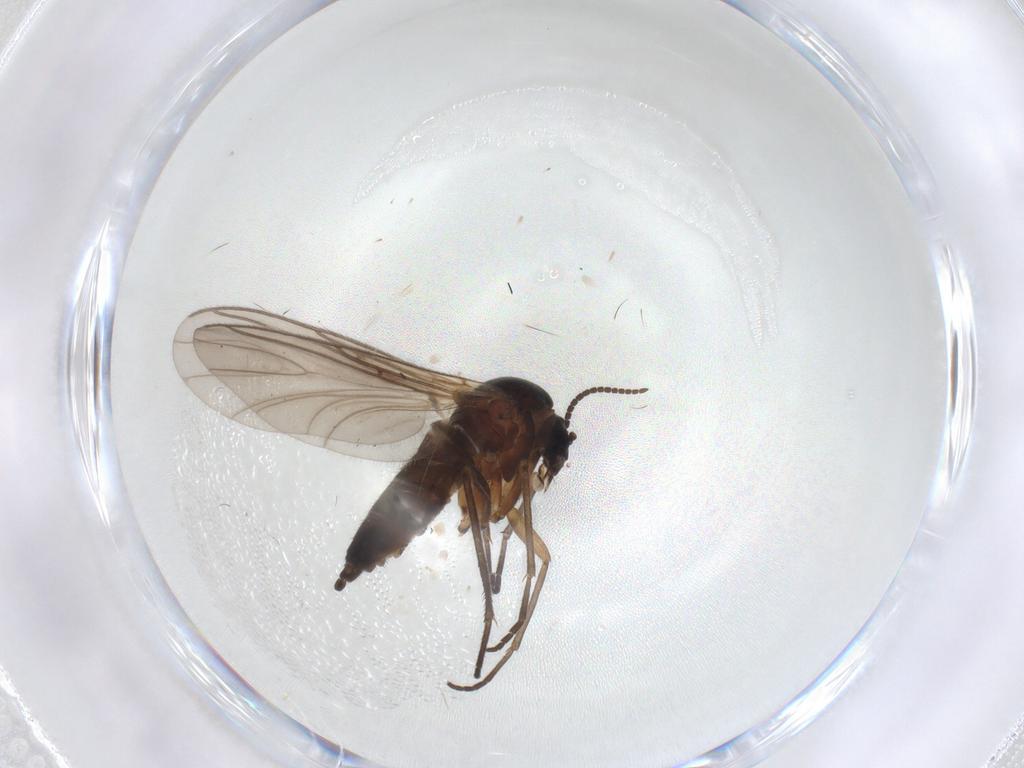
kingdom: Animalia
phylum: Arthropoda
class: Insecta
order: Diptera
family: Sciaridae
